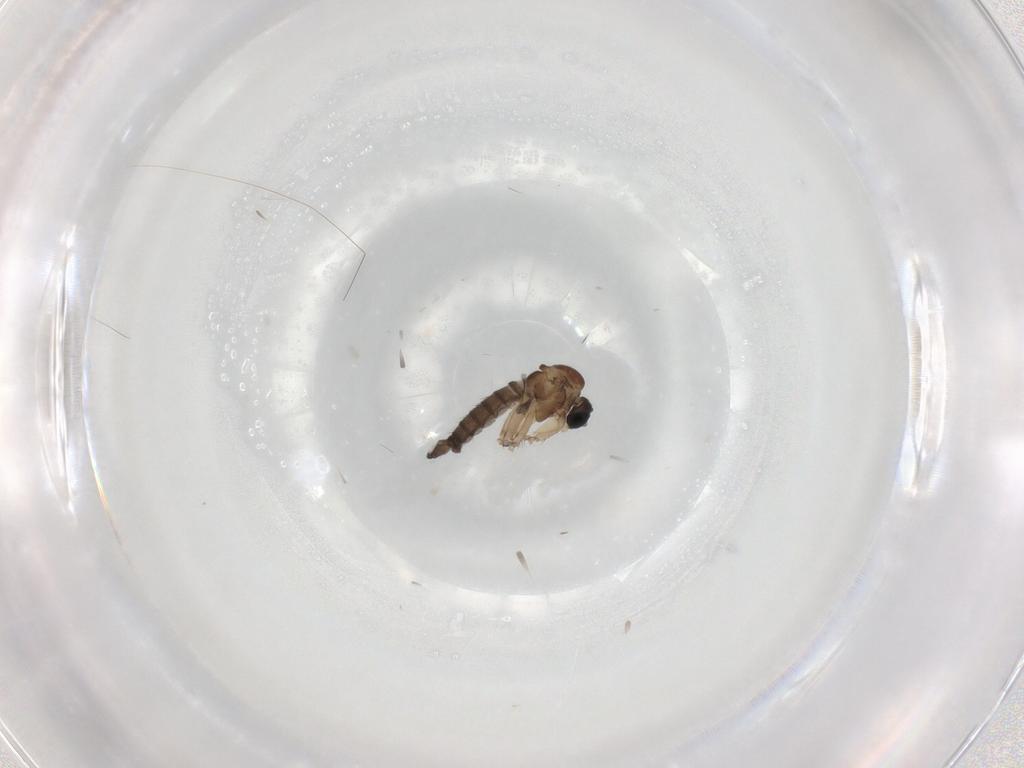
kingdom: Animalia
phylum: Arthropoda
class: Insecta
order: Diptera
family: Sciaridae
